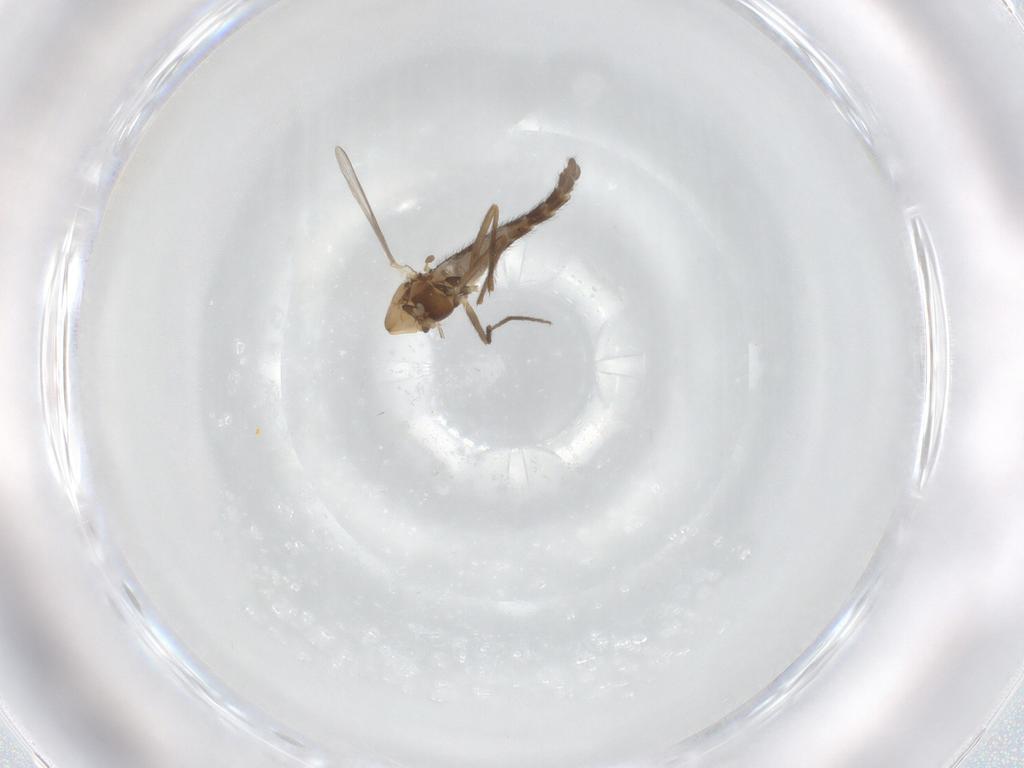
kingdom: Animalia
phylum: Arthropoda
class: Insecta
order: Diptera
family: Chironomidae
